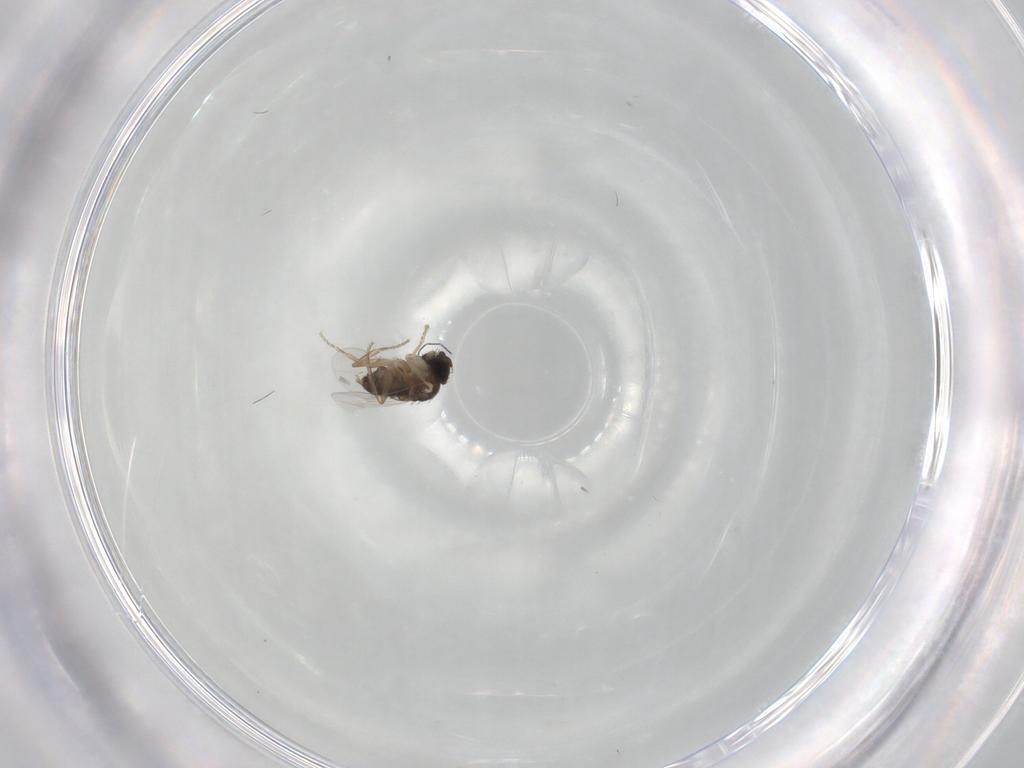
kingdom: Animalia
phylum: Arthropoda
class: Insecta
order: Diptera
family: Phoridae
